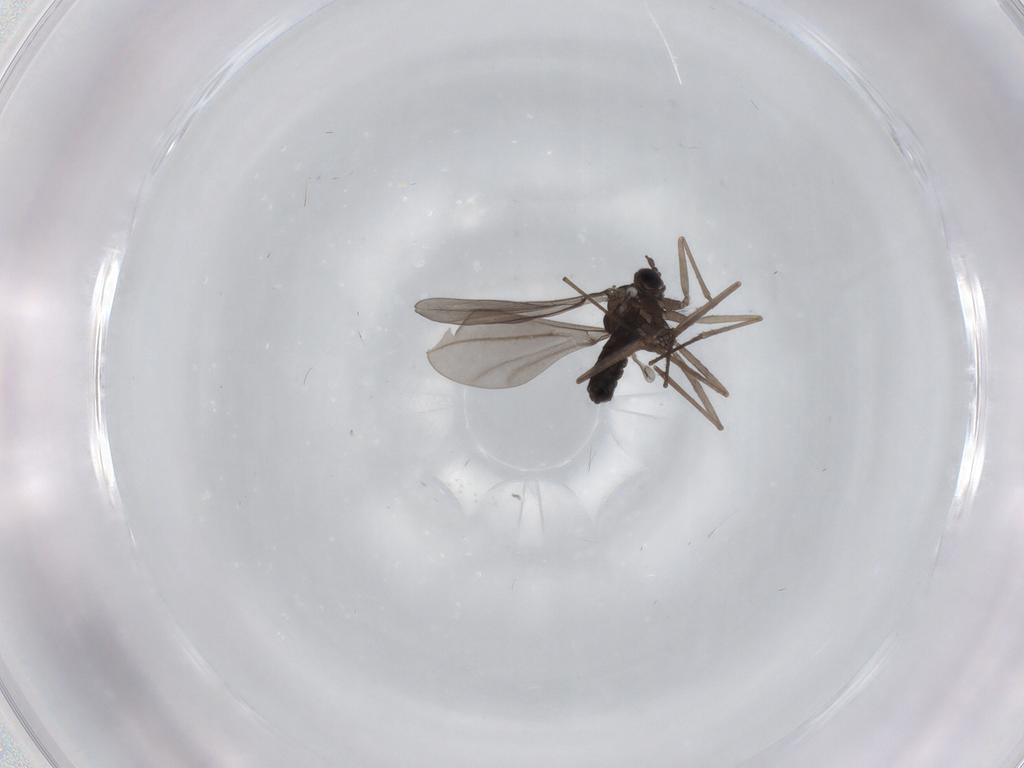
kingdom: Animalia
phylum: Arthropoda
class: Insecta
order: Diptera
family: Cecidomyiidae
